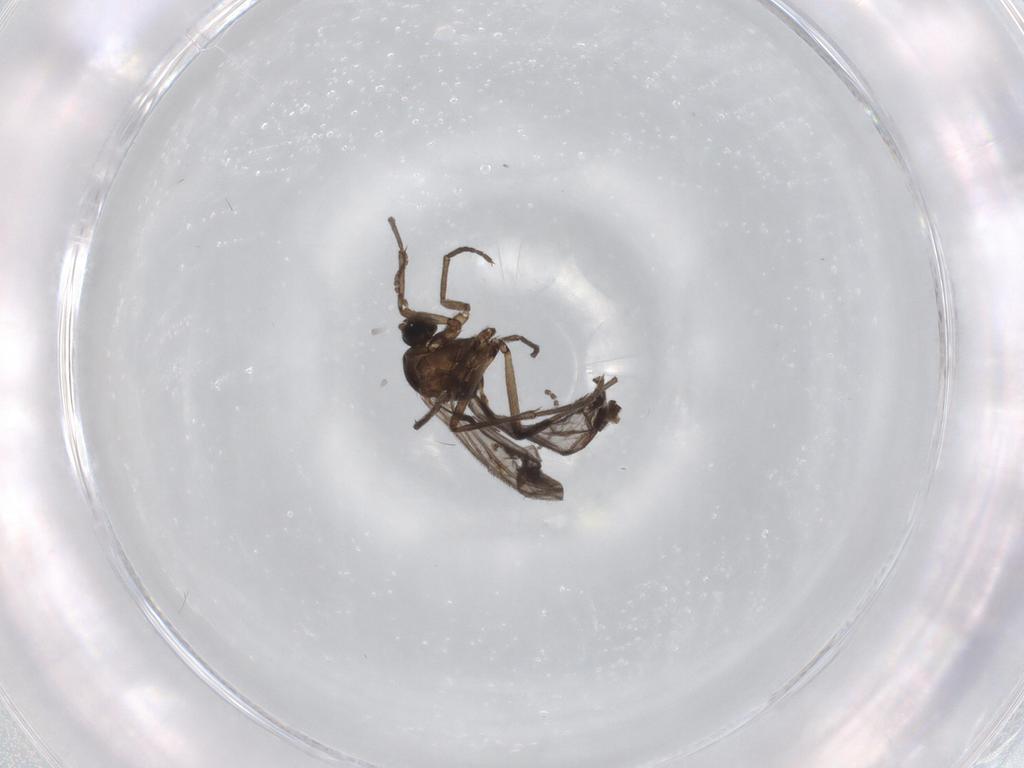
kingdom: Animalia
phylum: Arthropoda
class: Insecta
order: Diptera
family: Sciaridae
